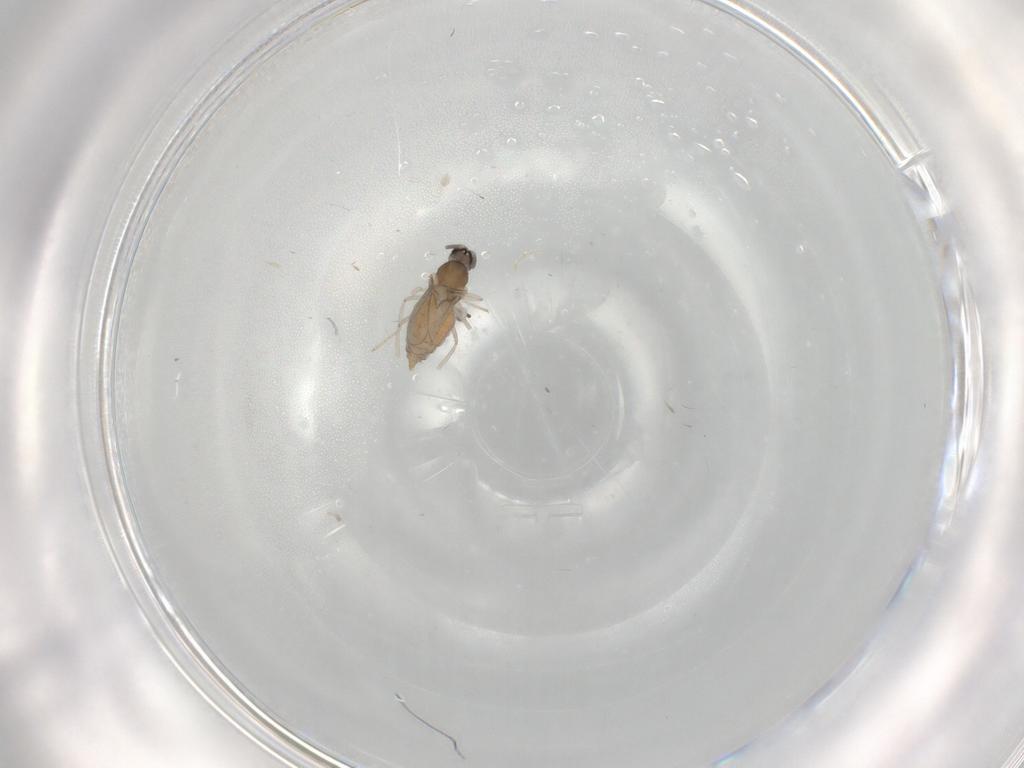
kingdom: Animalia
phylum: Arthropoda
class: Insecta
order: Diptera
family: Cecidomyiidae
